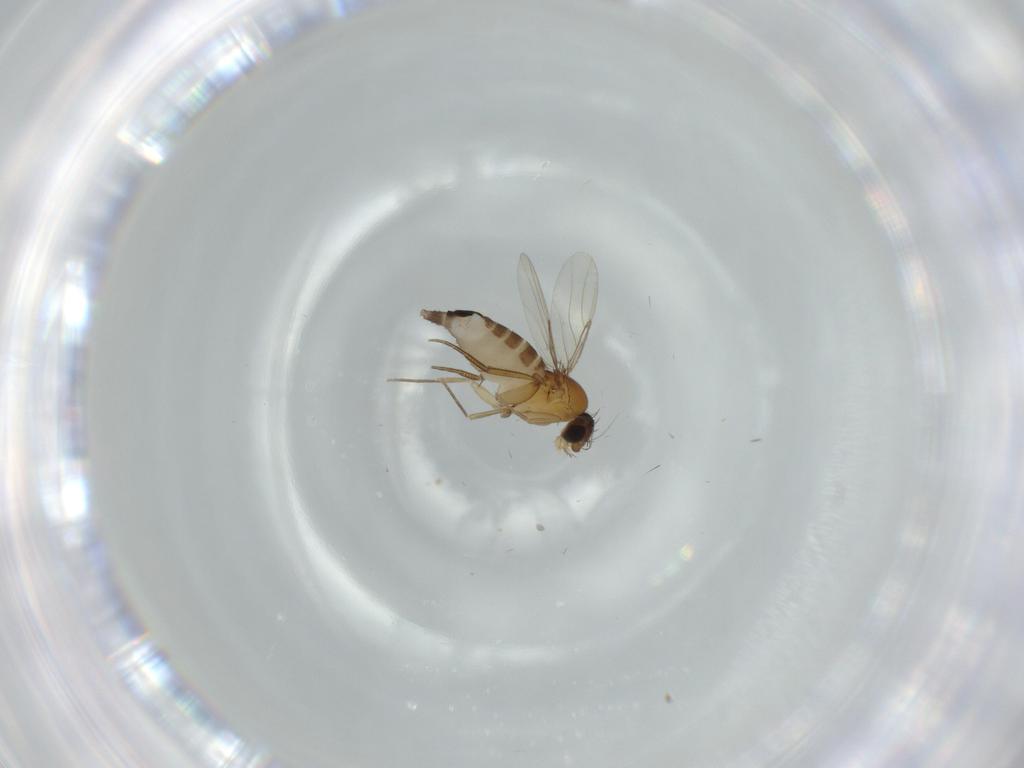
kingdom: Animalia
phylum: Arthropoda
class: Insecta
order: Diptera
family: Phoridae
